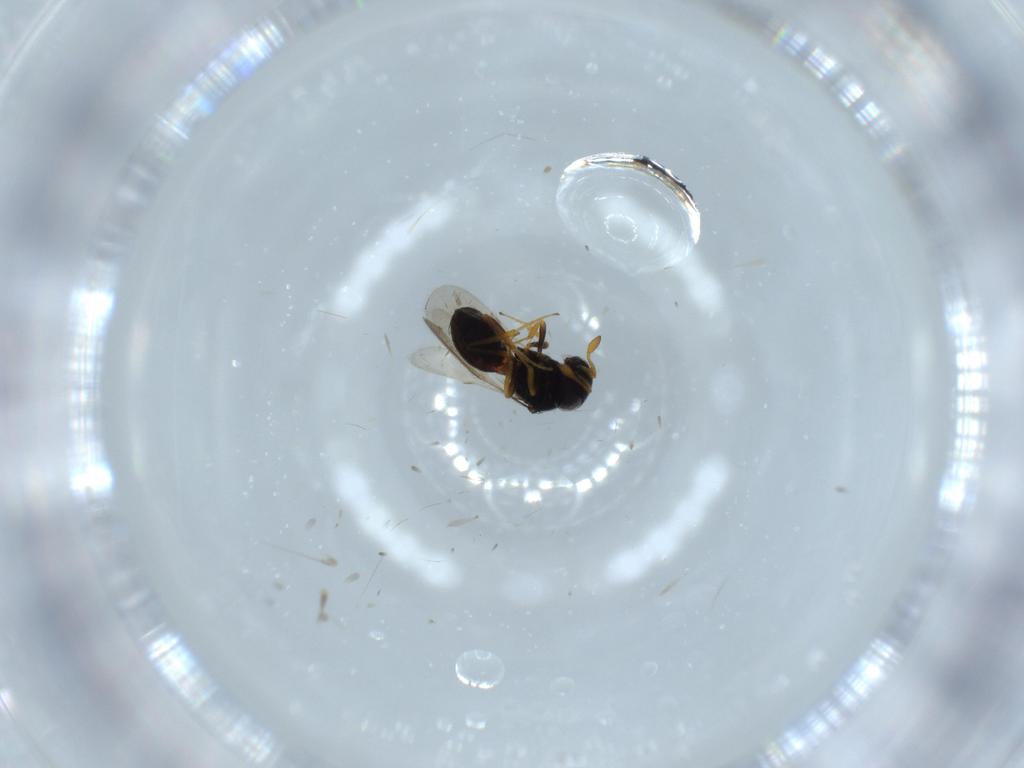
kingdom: Animalia
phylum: Arthropoda
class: Insecta
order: Hymenoptera
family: Scelionidae
